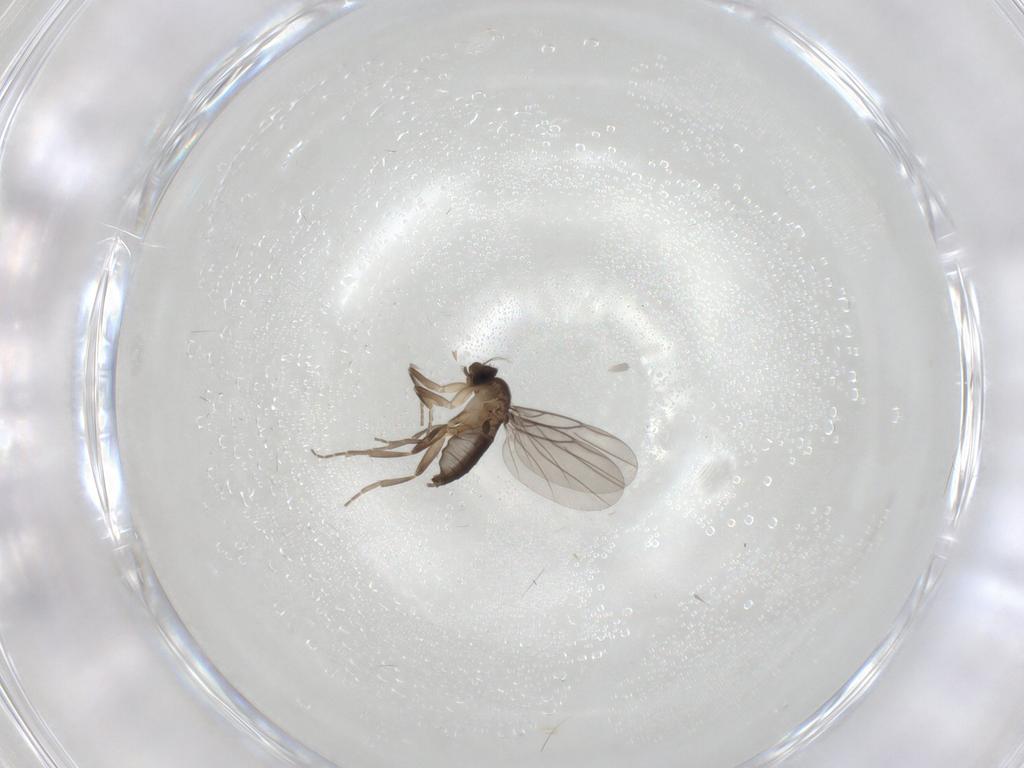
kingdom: Animalia
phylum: Arthropoda
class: Insecta
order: Diptera
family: Phoridae
